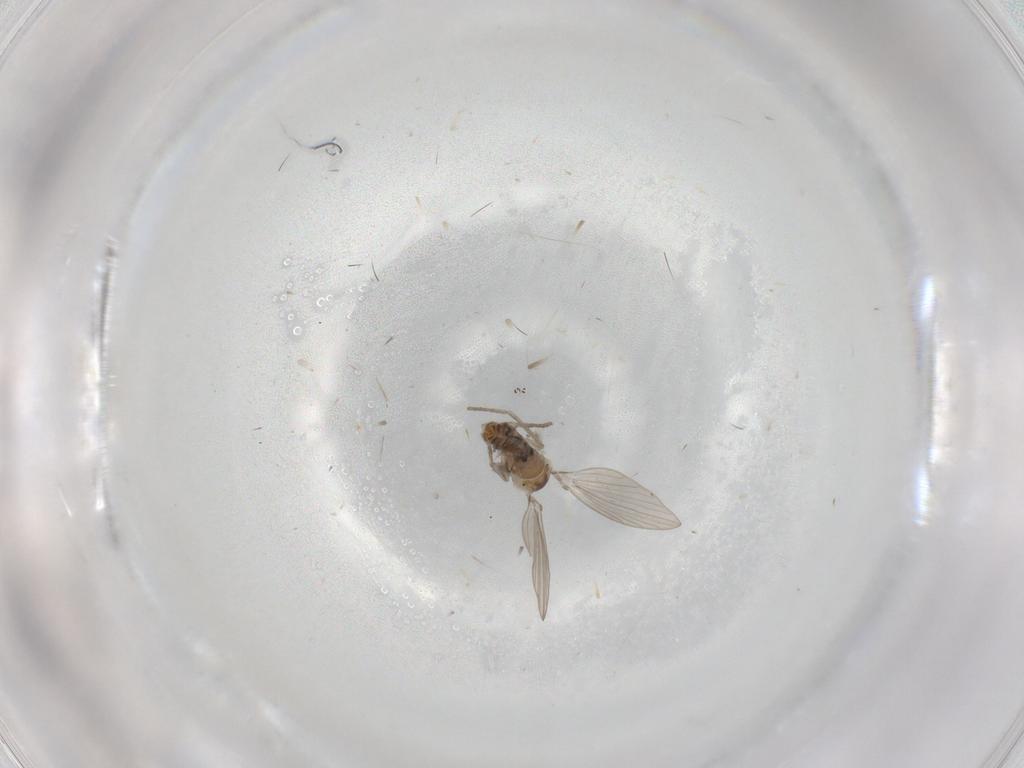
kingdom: Animalia
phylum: Arthropoda
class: Insecta
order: Diptera
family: Psychodidae
